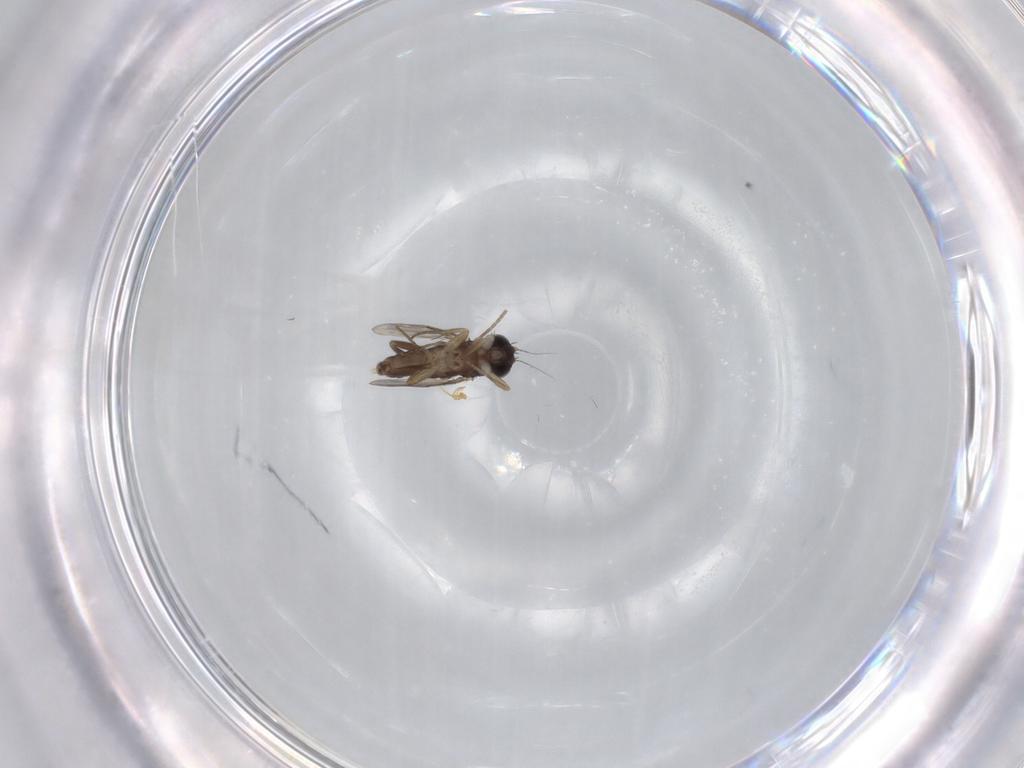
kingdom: Animalia
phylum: Arthropoda
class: Insecta
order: Diptera
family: Phoridae
